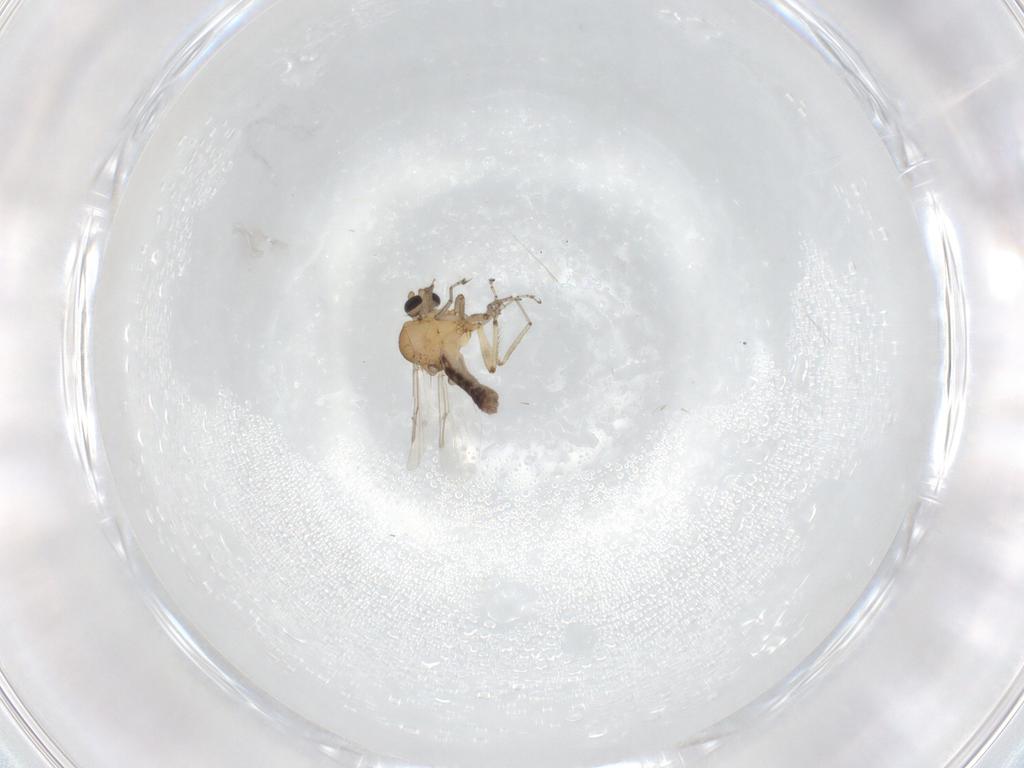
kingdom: Animalia
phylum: Arthropoda
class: Insecta
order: Diptera
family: Ceratopogonidae
